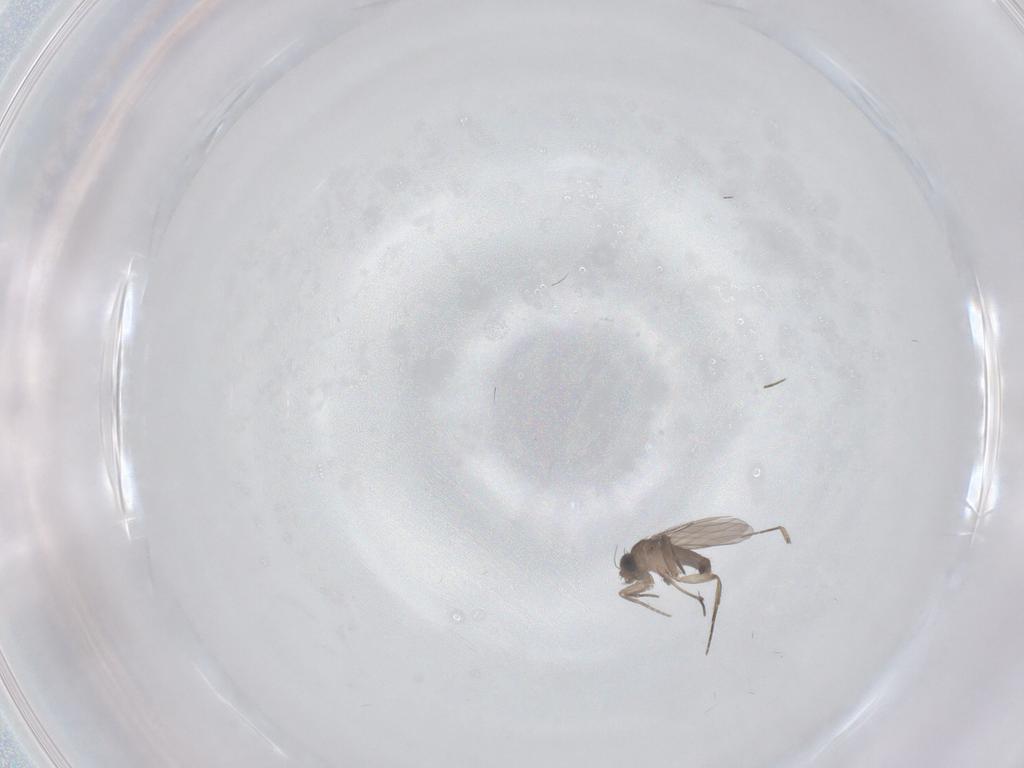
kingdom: Animalia
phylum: Arthropoda
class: Insecta
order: Diptera
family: Phoridae
